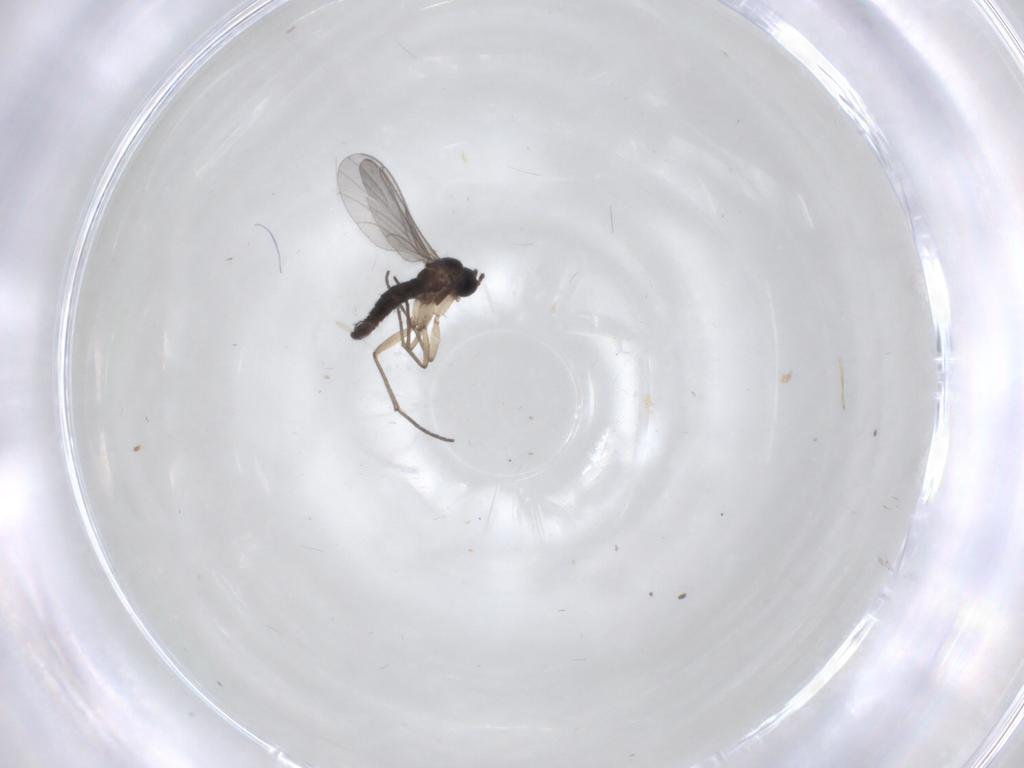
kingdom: Animalia
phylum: Arthropoda
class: Insecta
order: Diptera
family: Sciaridae
